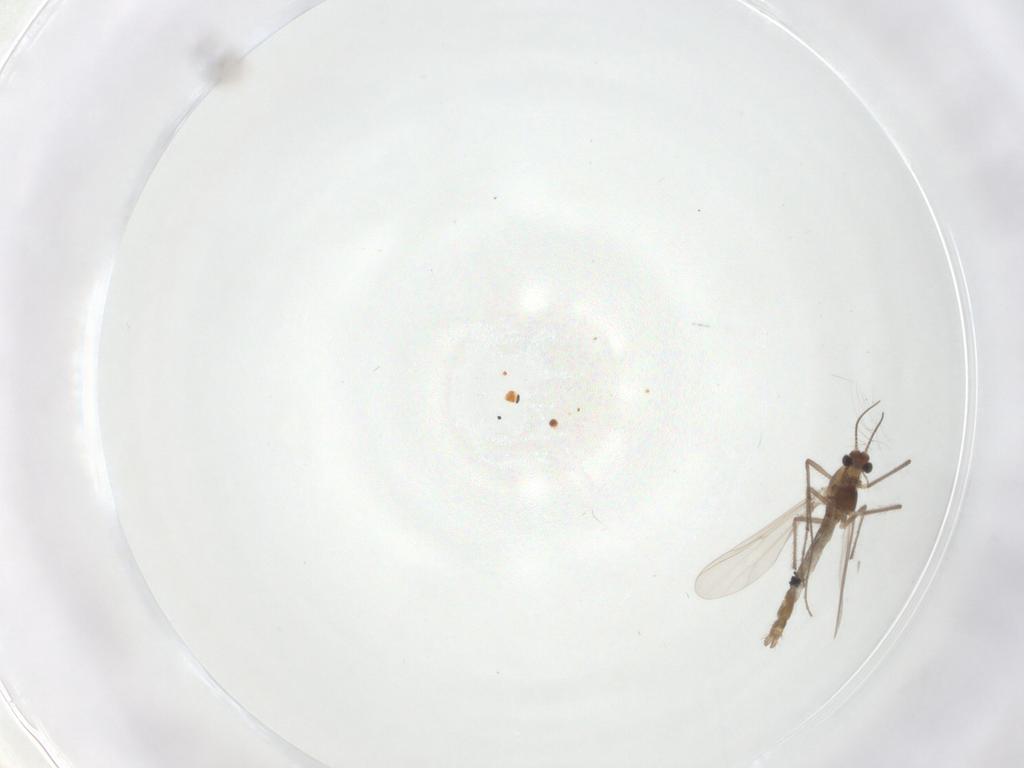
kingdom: Animalia
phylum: Arthropoda
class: Insecta
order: Diptera
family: Chironomidae
